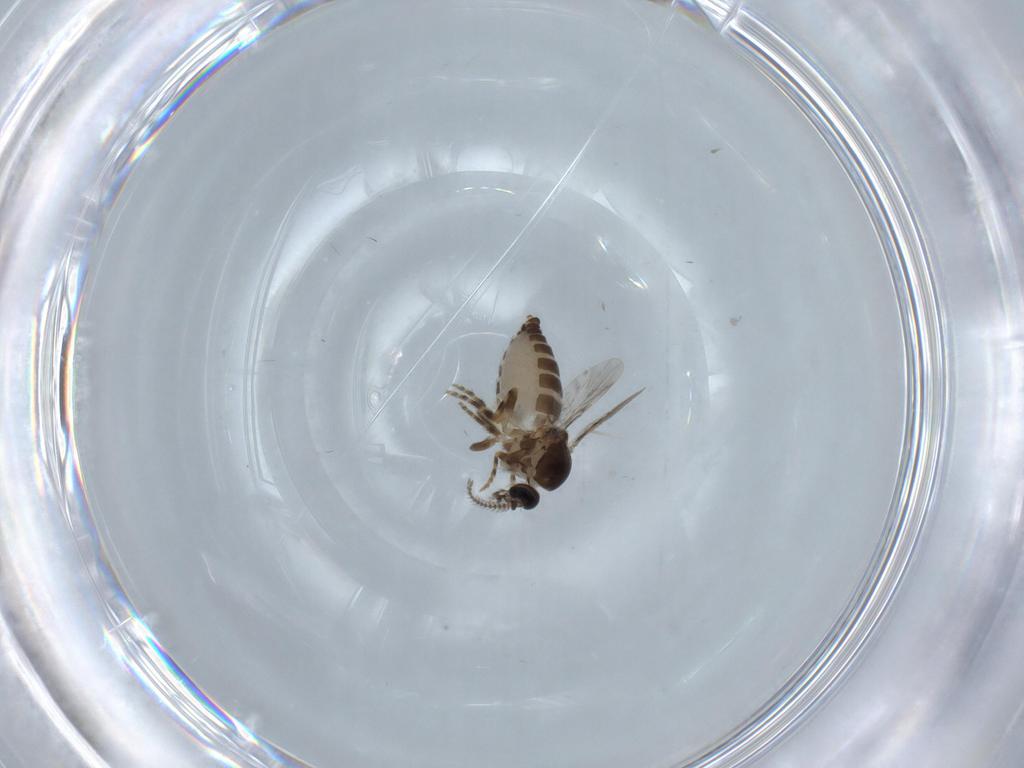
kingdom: Animalia
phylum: Arthropoda
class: Insecta
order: Diptera
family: Ceratopogonidae
